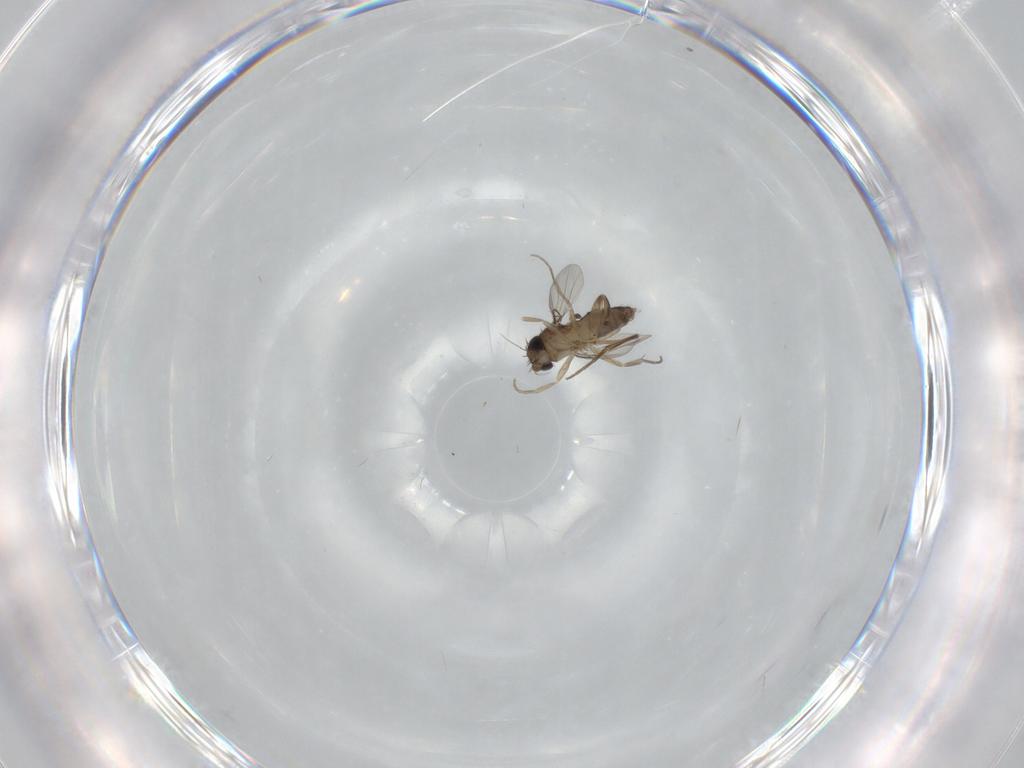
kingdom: Animalia
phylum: Arthropoda
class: Insecta
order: Diptera
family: Phoridae
